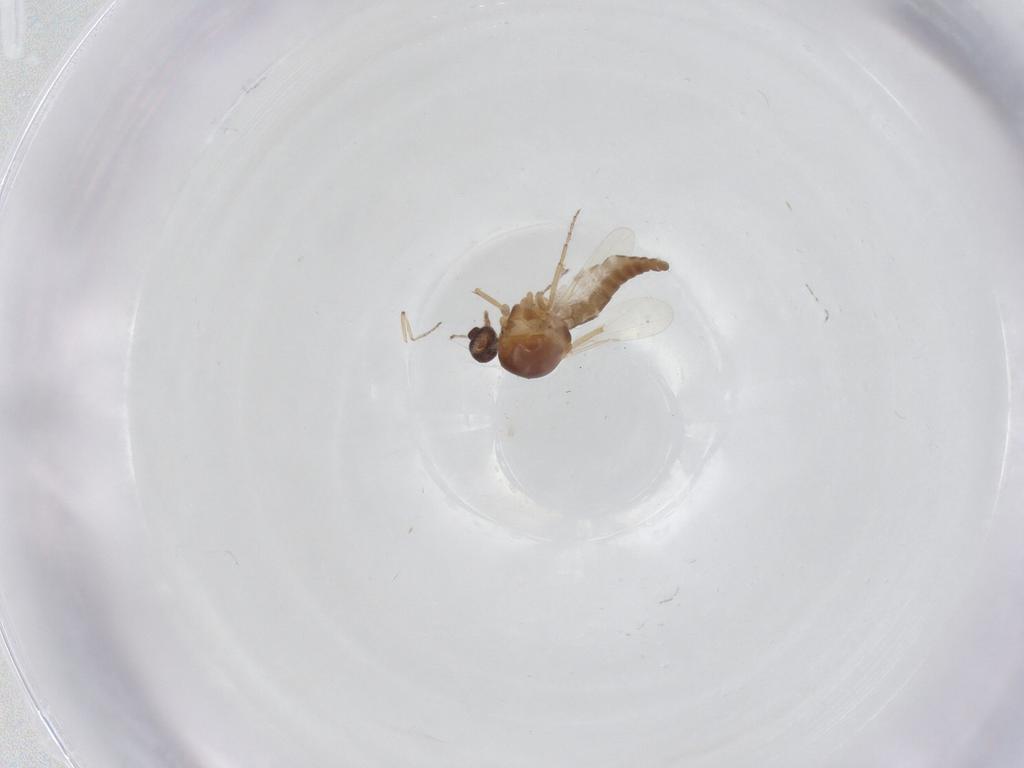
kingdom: Animalia
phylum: Arthropoda
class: Insecta
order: Diptera
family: Ceratopogonidae
